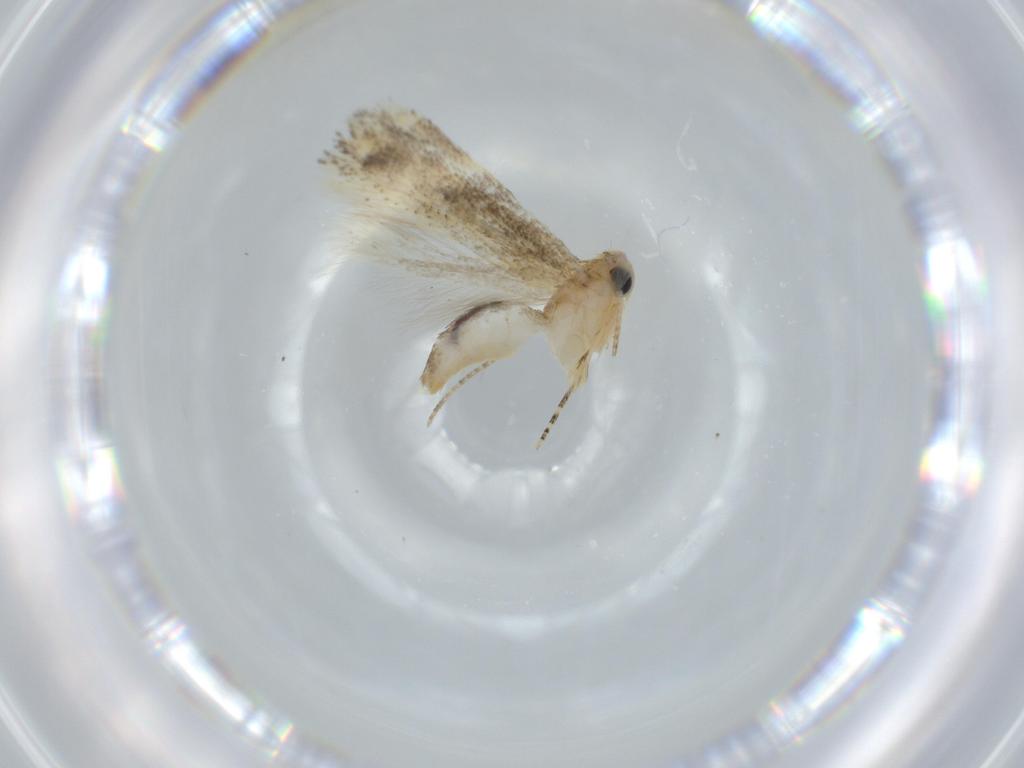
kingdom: Animalia
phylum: Arthropoda
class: Insecta
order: Lepidoptera
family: Bucculatricidae
